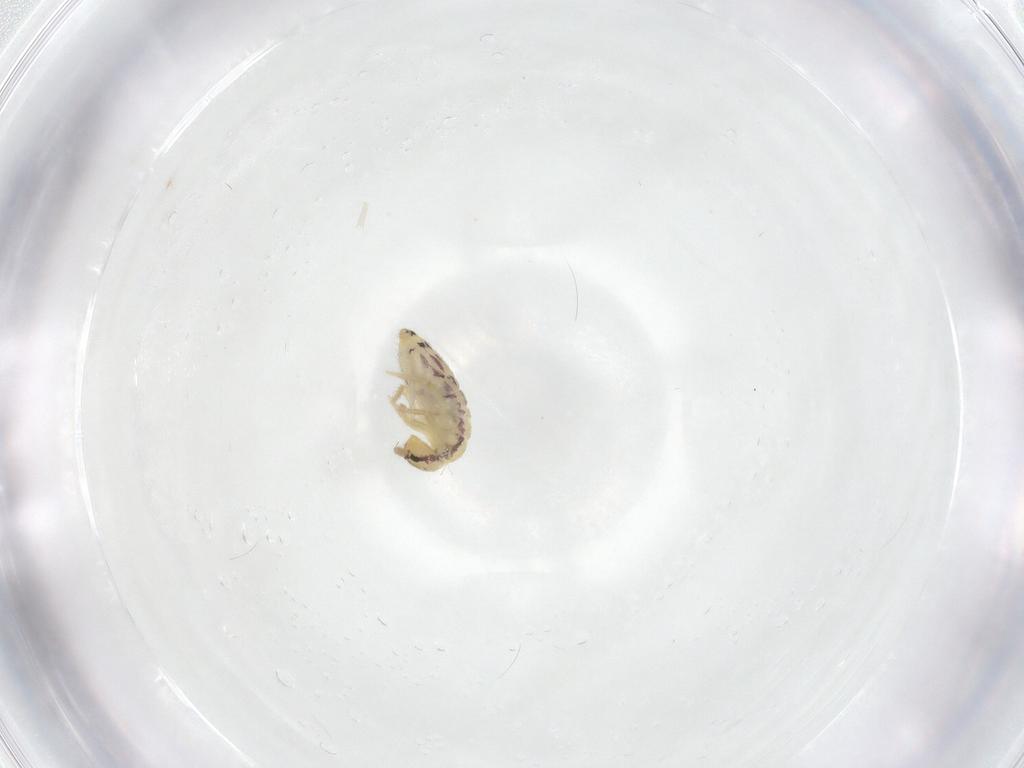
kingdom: Animalia
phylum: Arthropoda
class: Collembola
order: Entomobryomorpha
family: Entomobryidae
